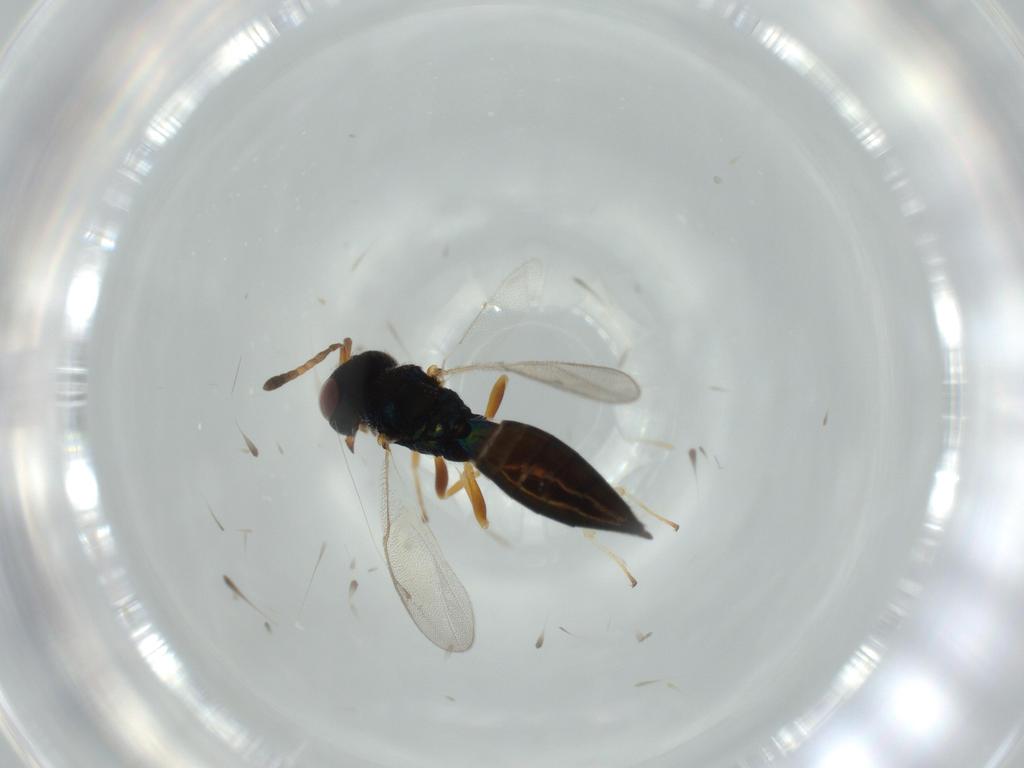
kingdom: Animalia
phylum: Arthropoda
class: Insecta
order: Hymenoptera
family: Pteromalidae
